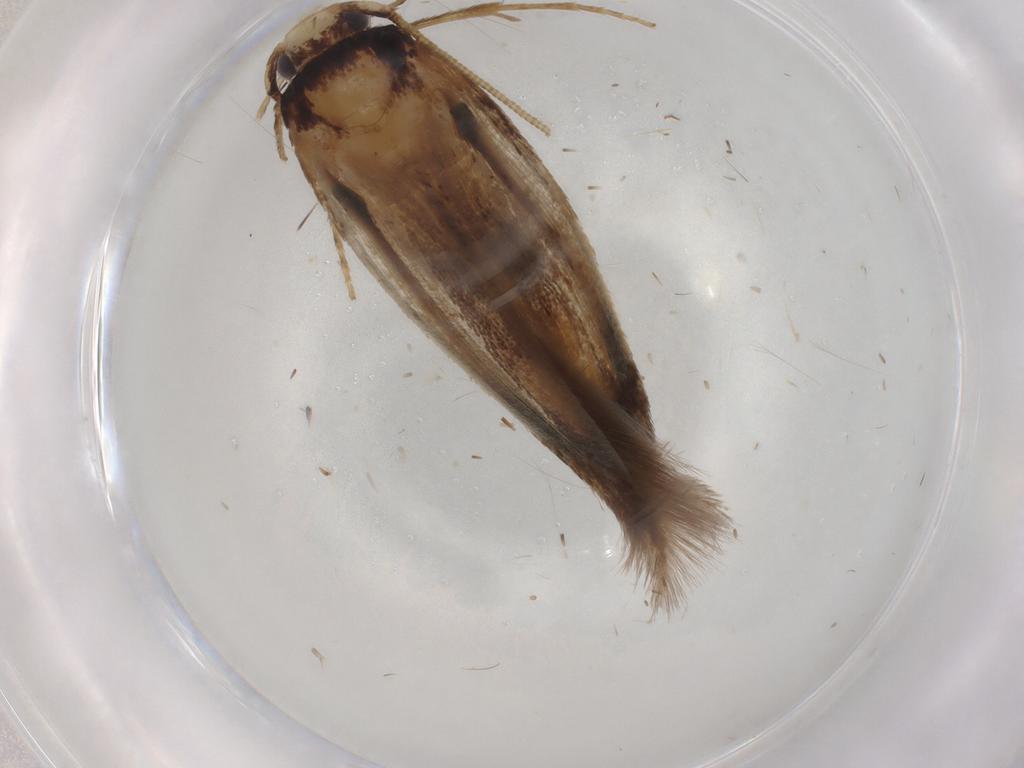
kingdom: Animalia
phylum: Arthropoda
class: Insecta
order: Lepidoptera
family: Tineidae
